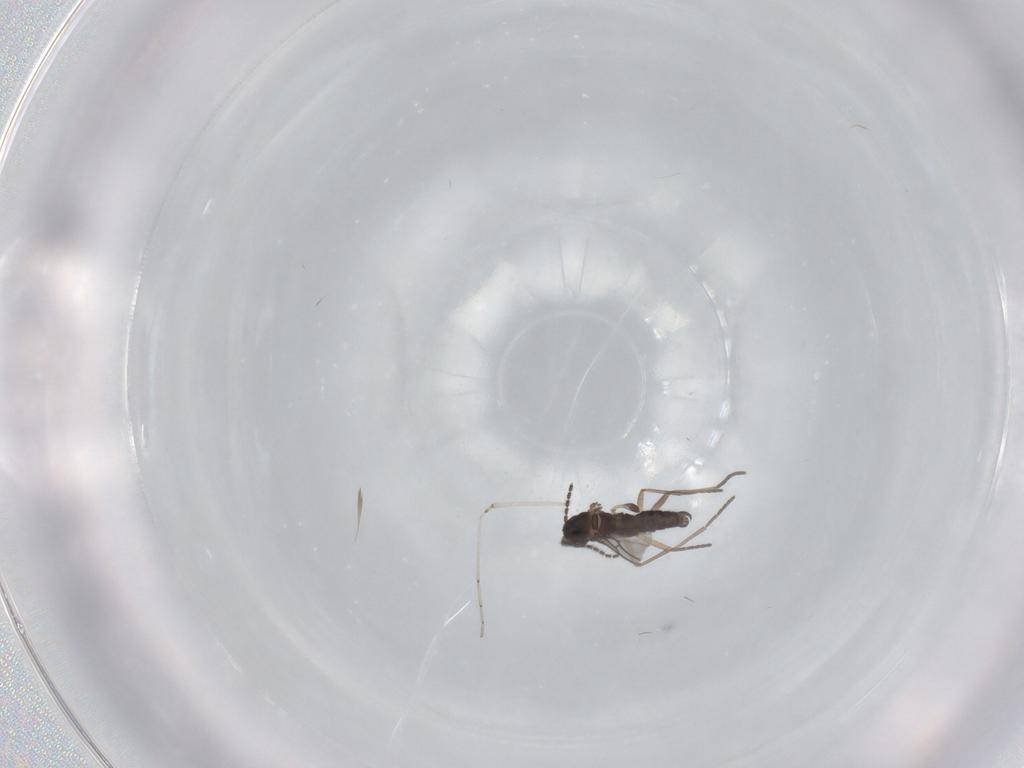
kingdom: Animalia
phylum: Arthropoda
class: Insecta
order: Diptera
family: Cecidomyiidae
